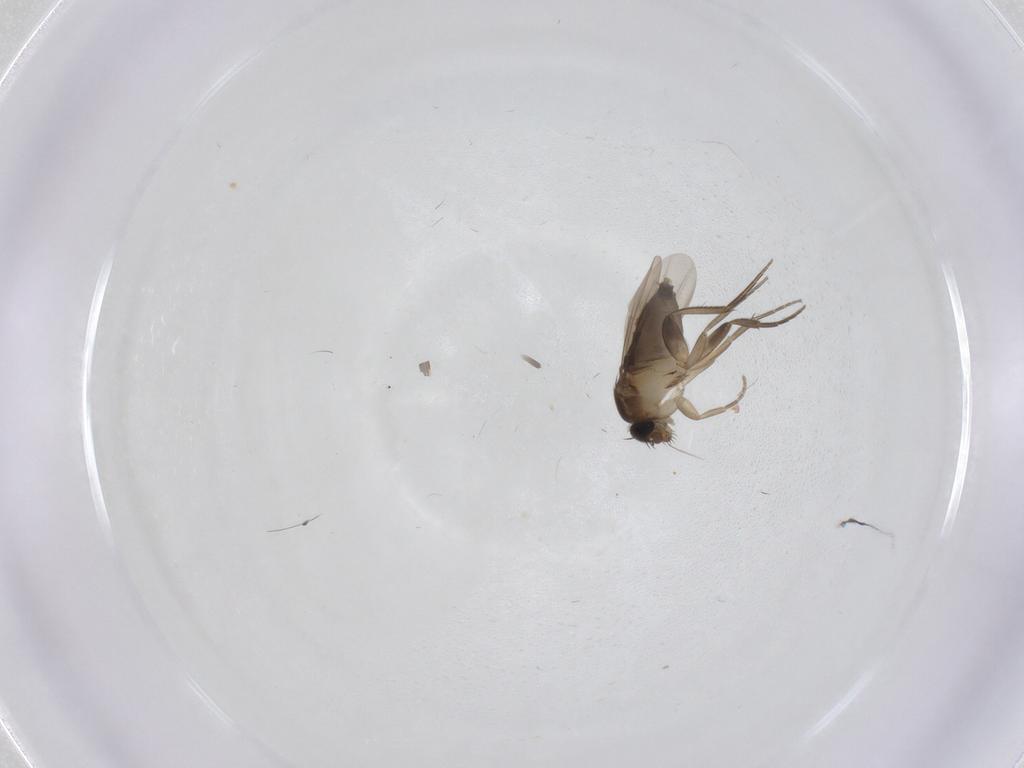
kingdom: Animalia
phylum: Arthropoda
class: Insecta
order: Diptera
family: Phoridae
